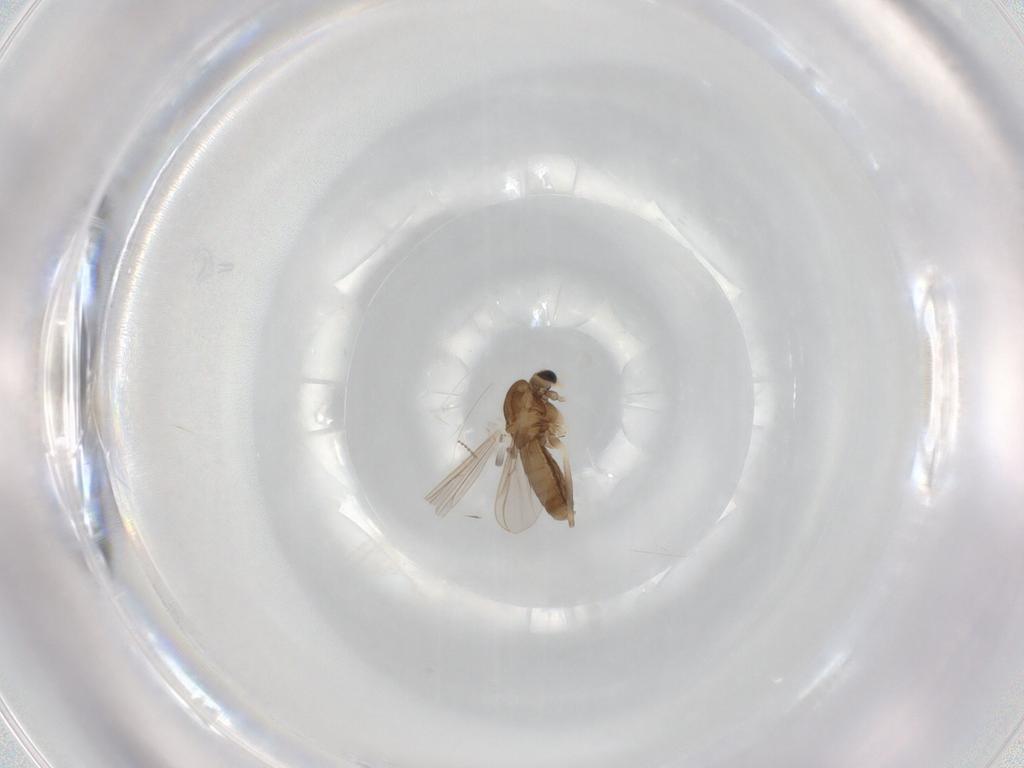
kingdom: Animalia
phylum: Arthropoda
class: Insecta
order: Diptera
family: Chironomidae
